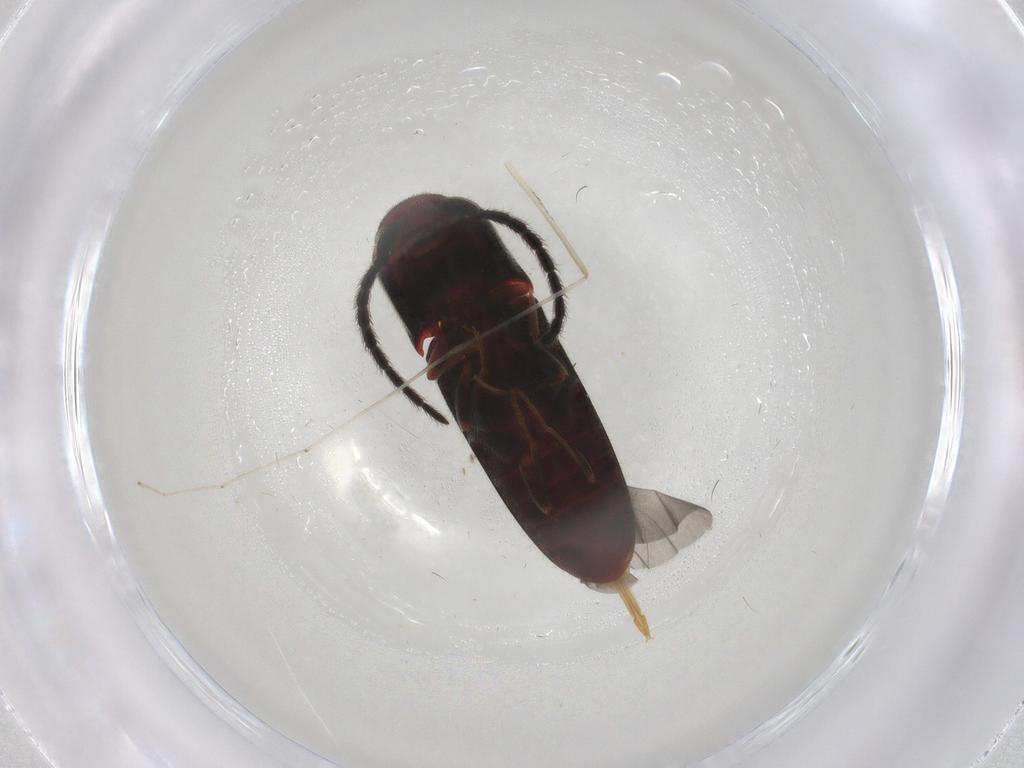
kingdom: Animalia
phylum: Arthropoda
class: Insecta
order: Coleoptera
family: Eucnemidae
